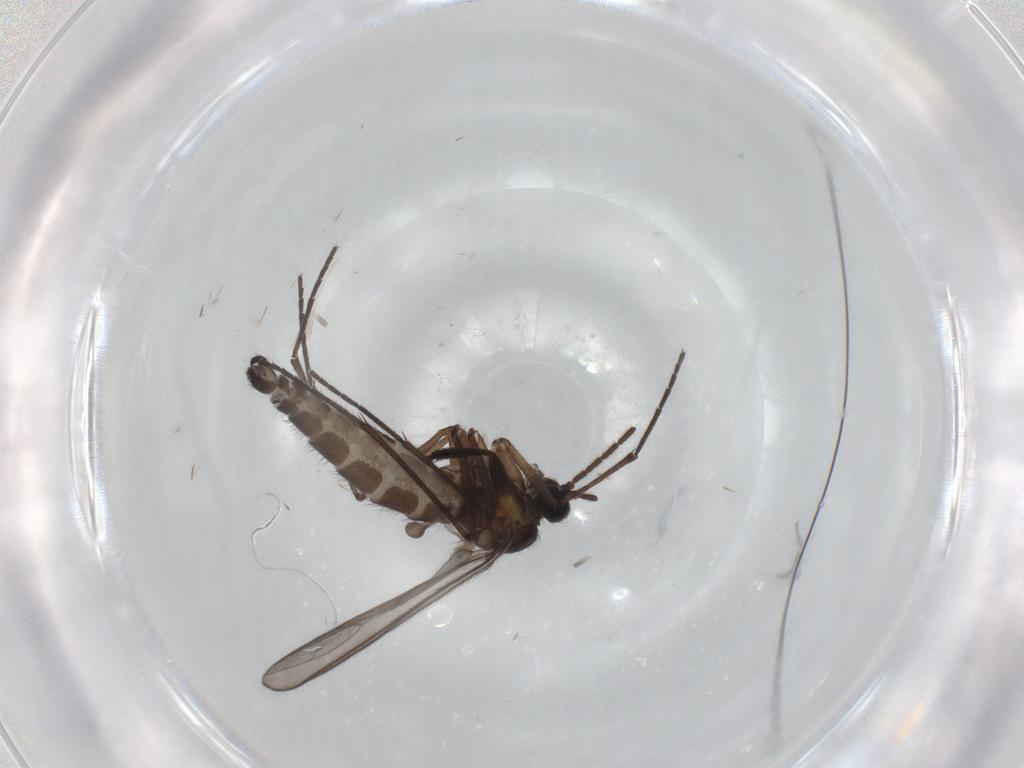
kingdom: Animalia
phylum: Arthropoda
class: Insecta
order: Diptera
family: Sciaridae
